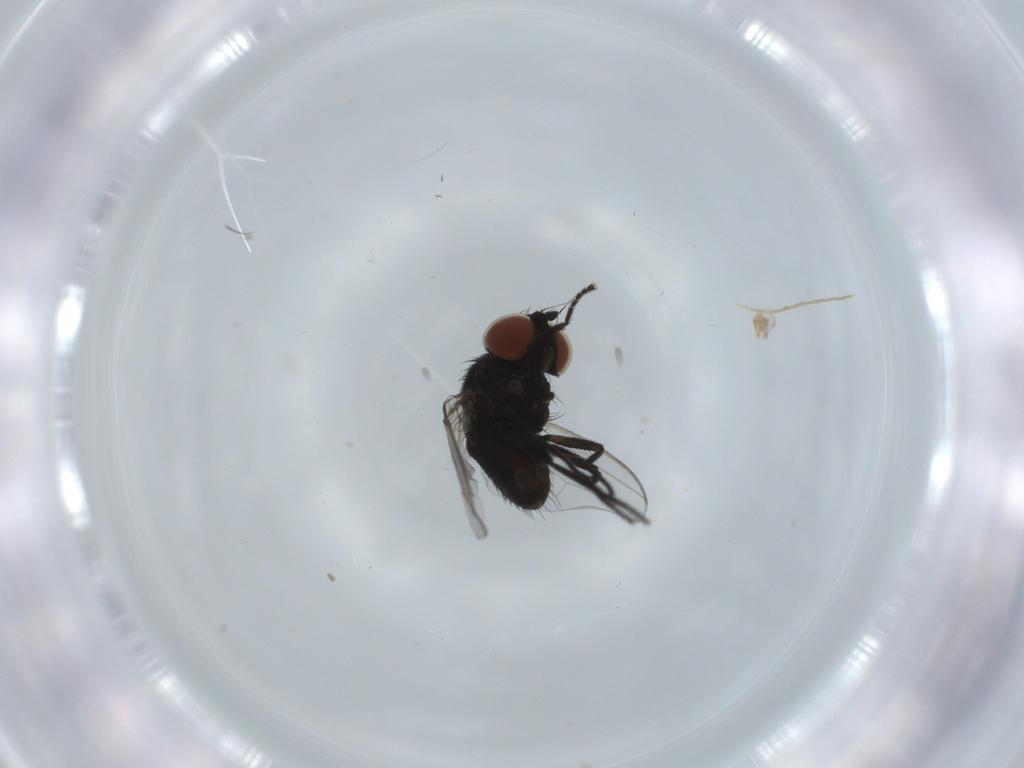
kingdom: Animalia
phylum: Arthropoda
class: Insecta
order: Diptera
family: Milichiidae
